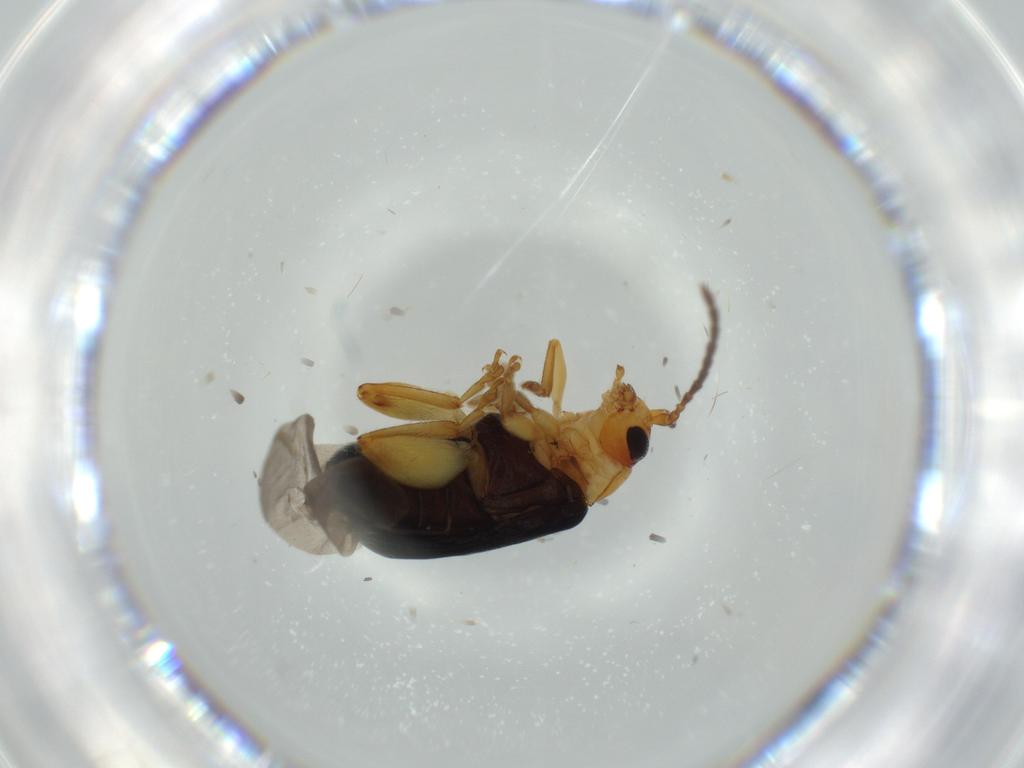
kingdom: Animalia
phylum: Arthropoda
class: Insecta
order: Coleoptera
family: Chrysomelidae
